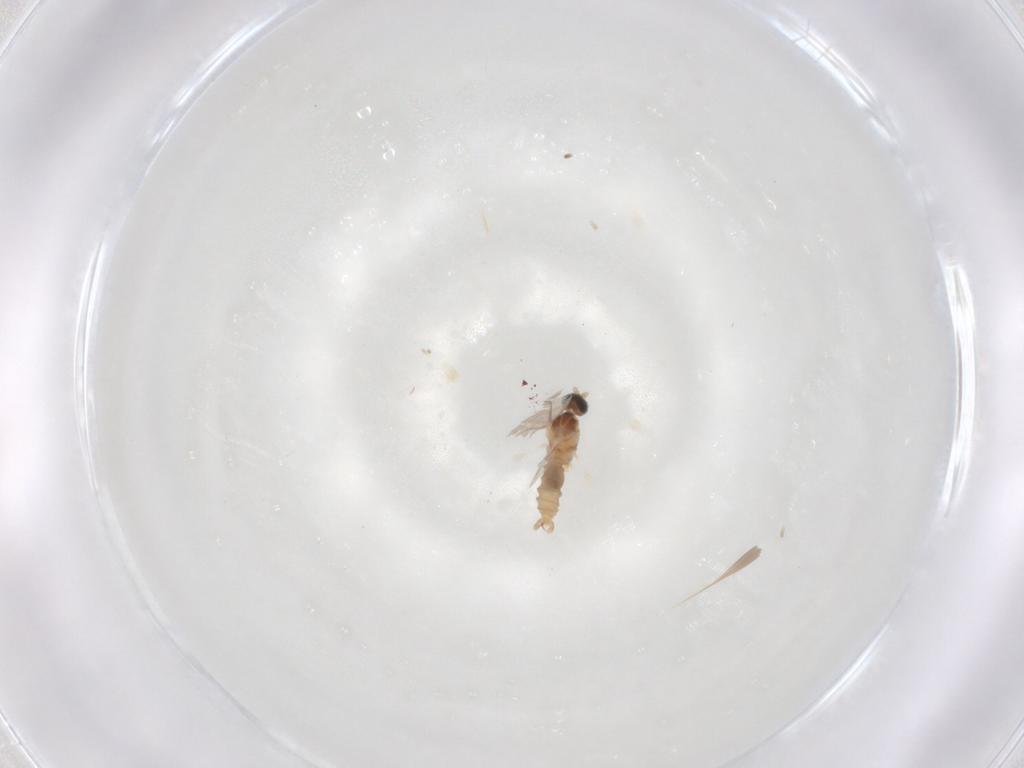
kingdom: Animalia
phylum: Arthropoda
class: Insecta
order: Diptera
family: Cecidomyiidae
